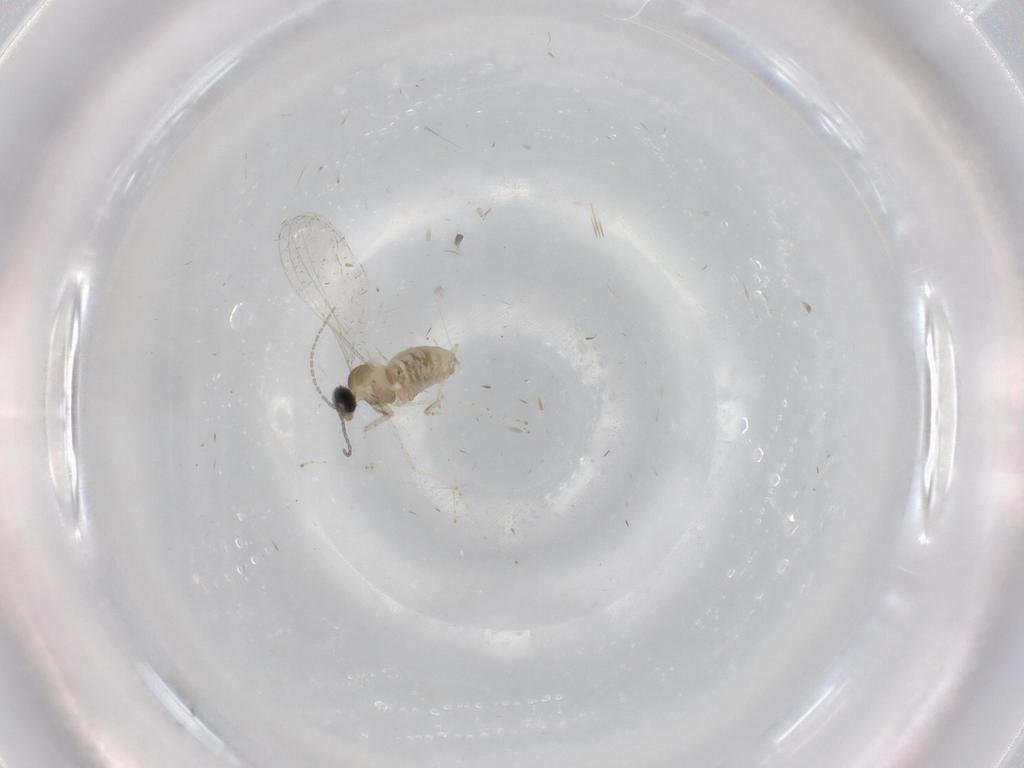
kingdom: Animalia
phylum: Arthropoda
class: Insecta
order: Diptera
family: Cecidomyiidae
